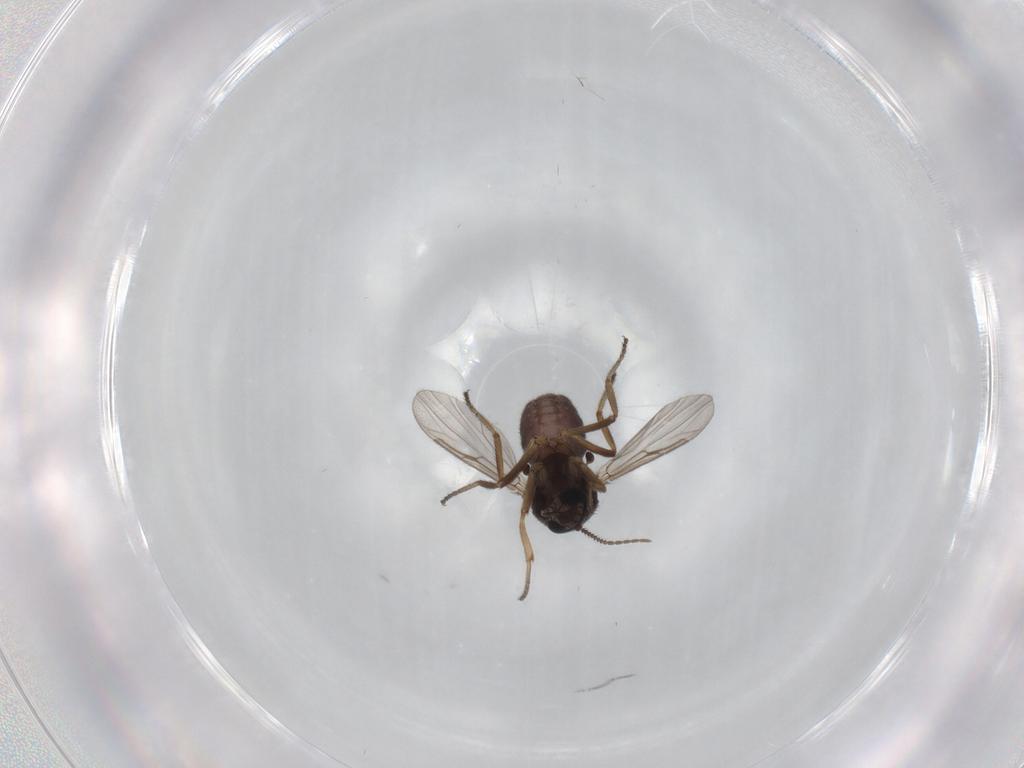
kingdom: Animalia
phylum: Arthropoda
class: Insecta
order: Diptera
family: Ceratopogonidae
